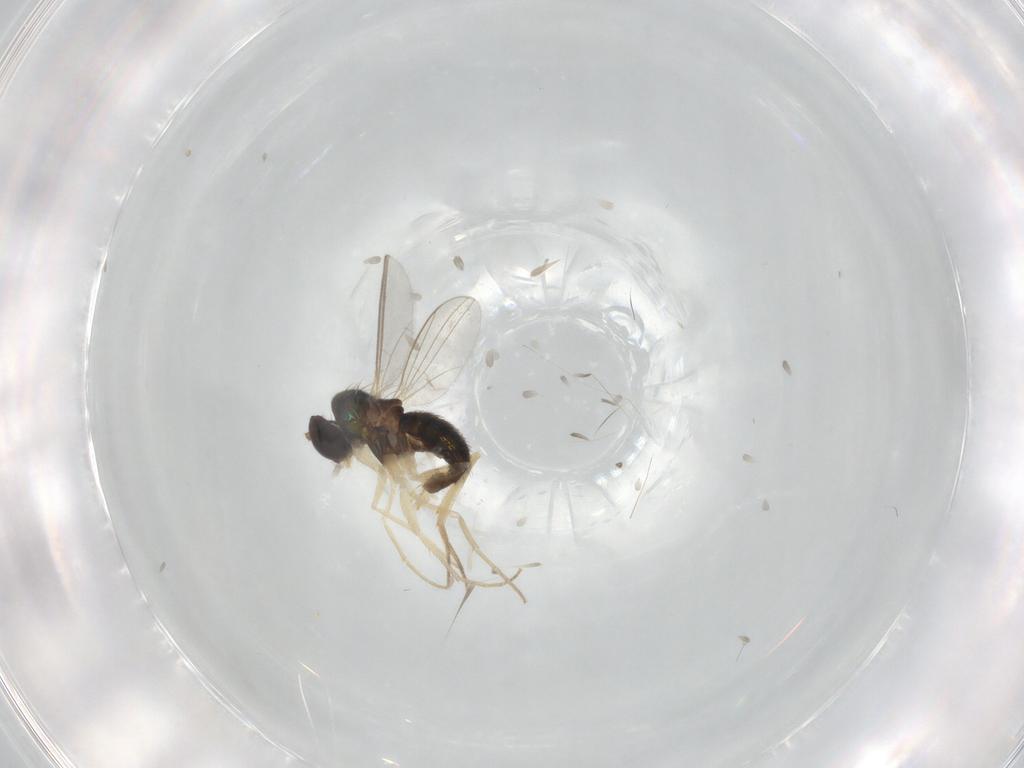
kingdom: Animalia
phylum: Arthropoda
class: Insecta
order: Diptera
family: Dolichopodidae
